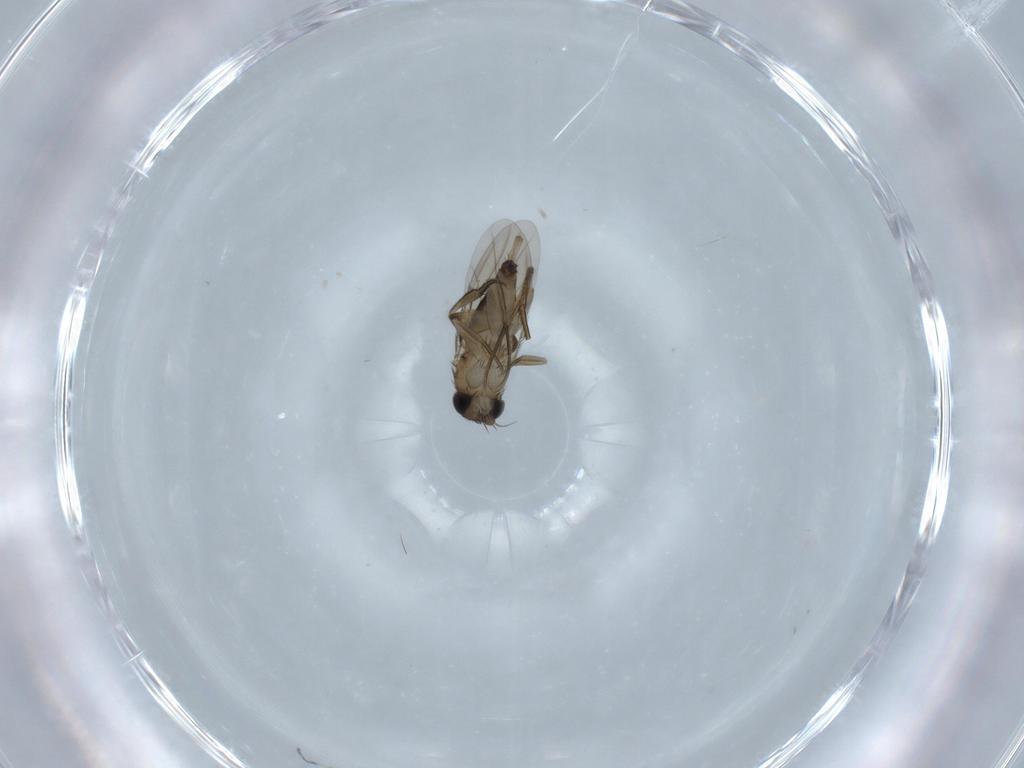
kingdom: Animalia
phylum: Arthropoda
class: Insecta
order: Diptera
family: Phoridae
